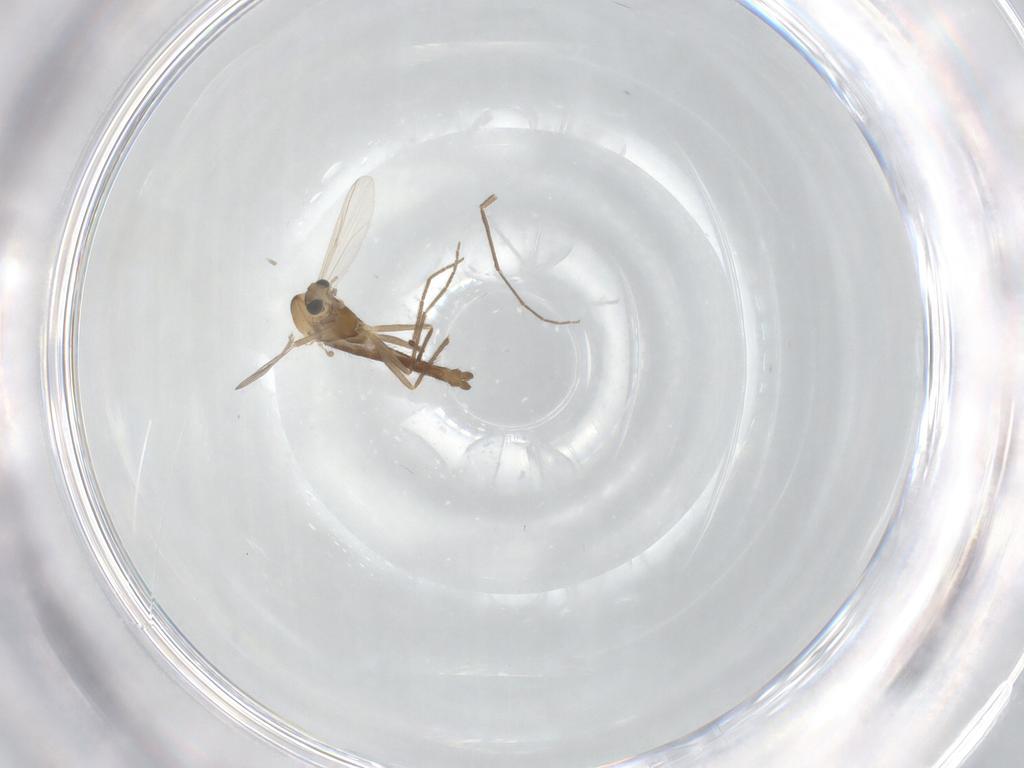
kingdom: Animalia
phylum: Arthropoda
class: Insecta
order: Diptera
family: Chironomidae
